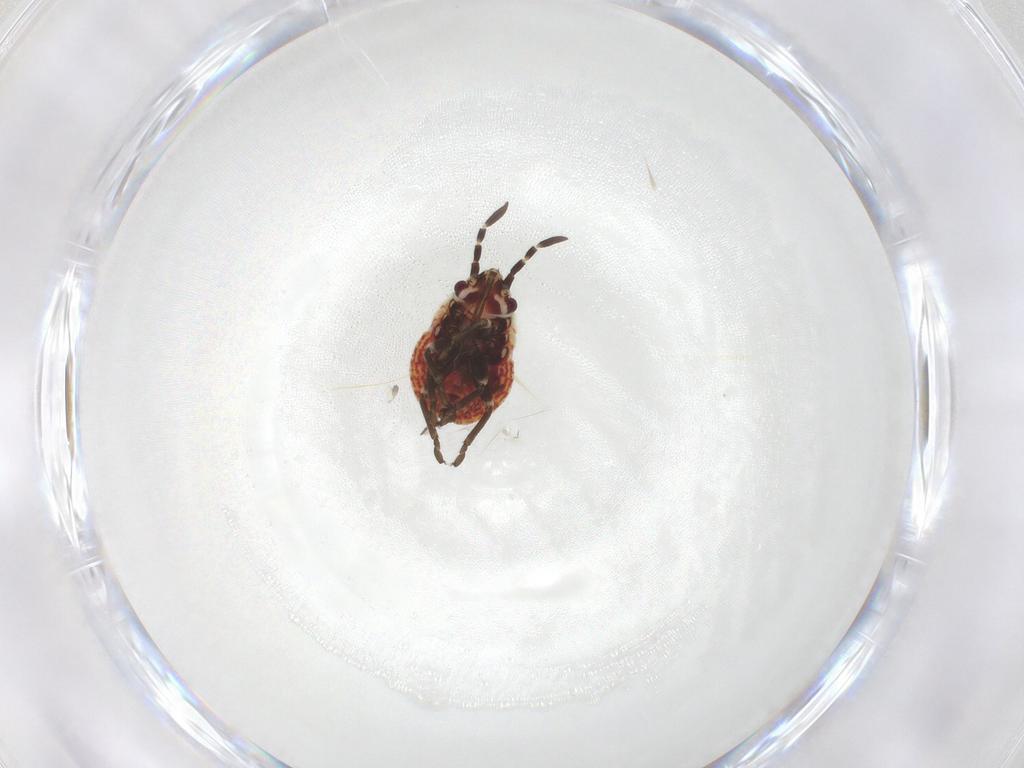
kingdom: Animalia
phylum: Arthropoda
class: Insecta
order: Hemiptera
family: Lygaeidae
